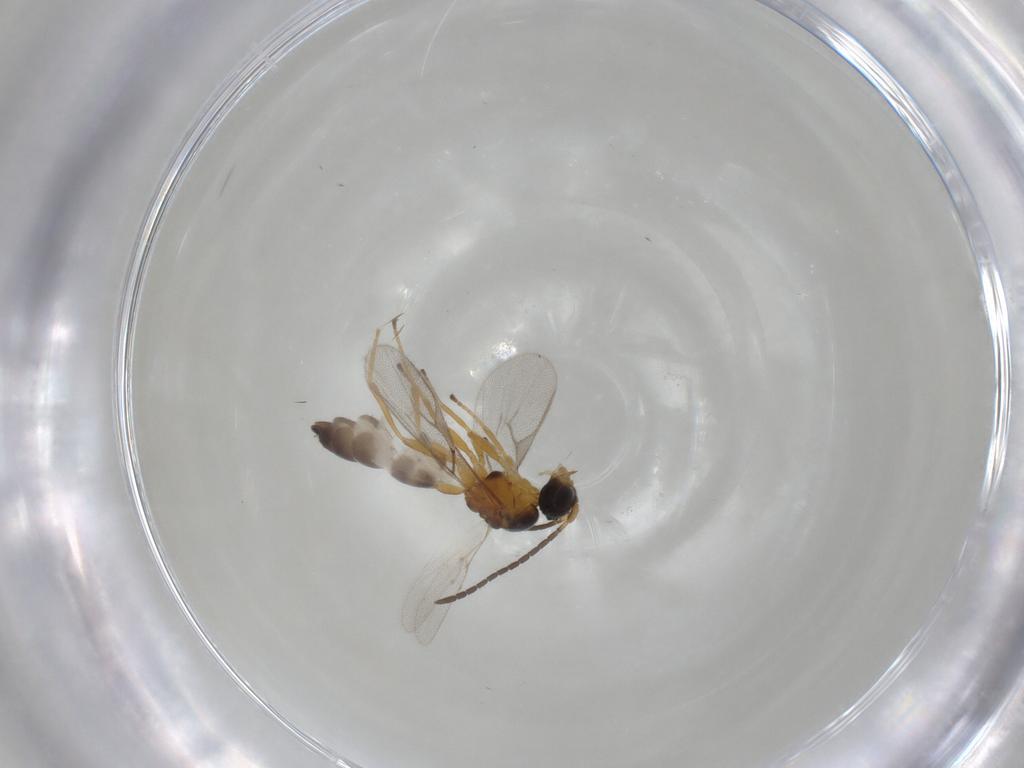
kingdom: Animalia
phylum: Arthropoda
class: Insecta
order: Hymenoptera
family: Braconidae
